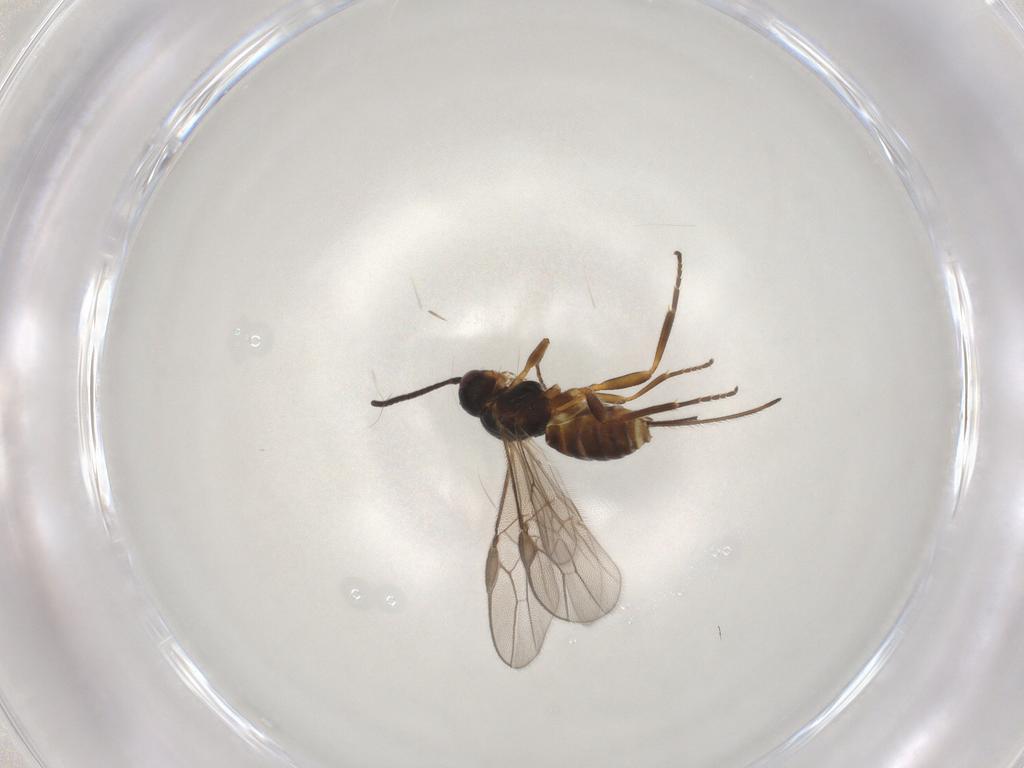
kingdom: Animalia
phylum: Arthropoda
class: Insecta
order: Hymenoptera
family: Braconidae
